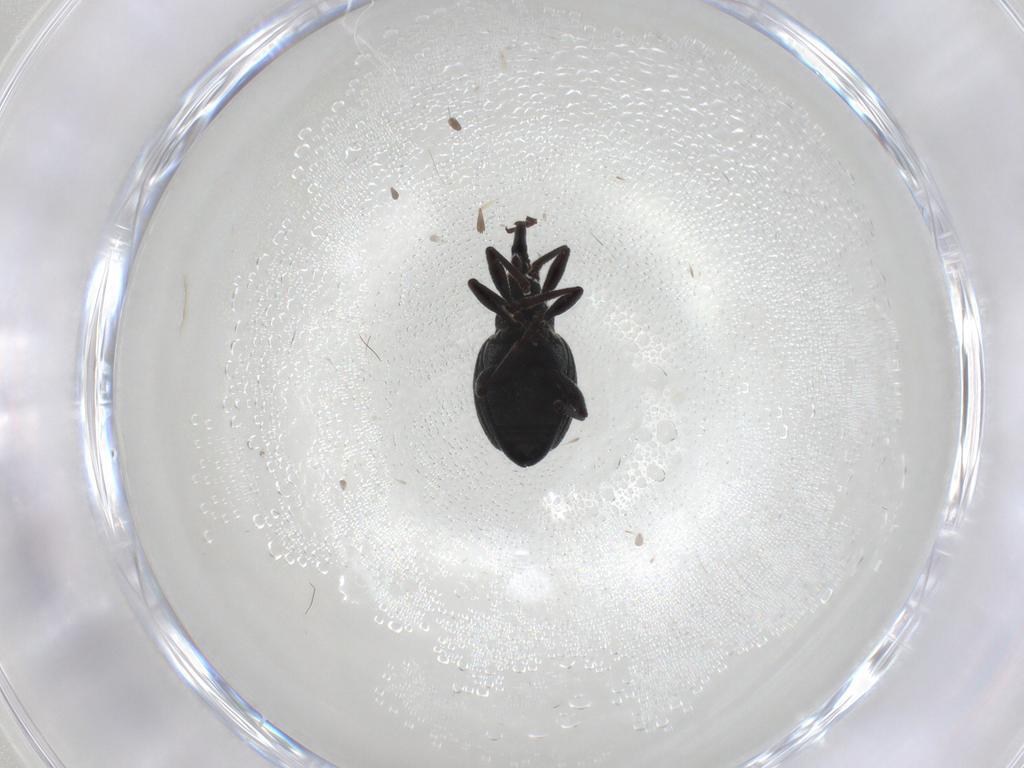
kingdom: Animalia
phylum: Arthropoda
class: Insecta
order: Coleoptera
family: Brentidae
